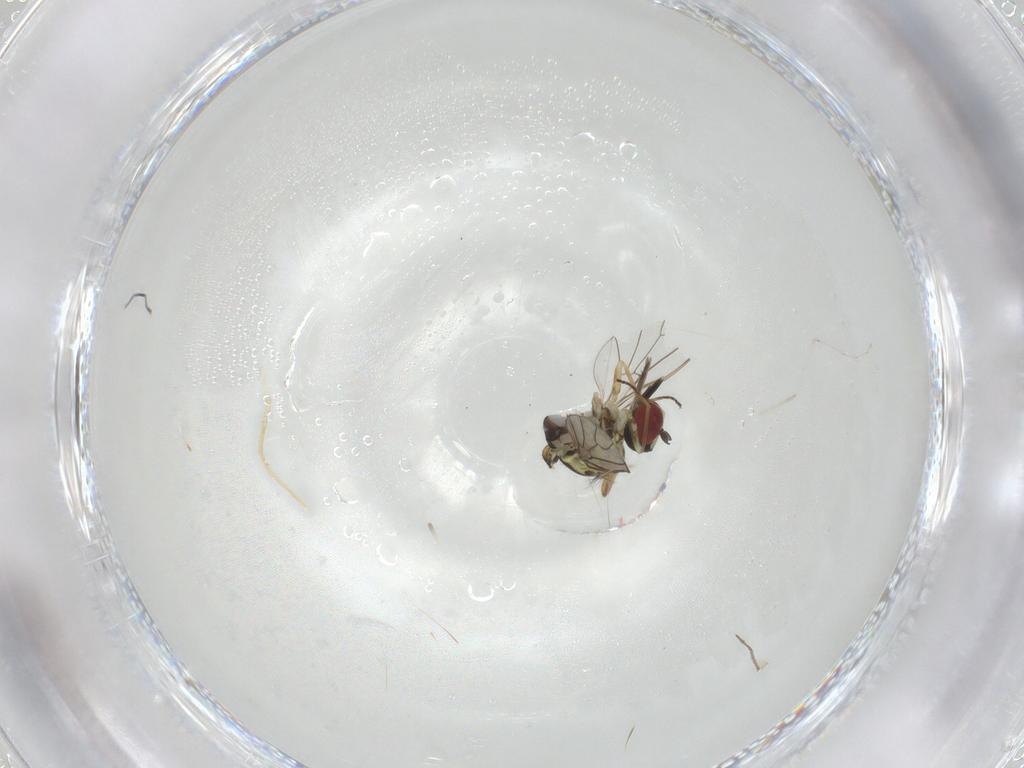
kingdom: Animalia
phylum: Arthropoda
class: Insecta
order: Diptera
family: Bombyliidae
